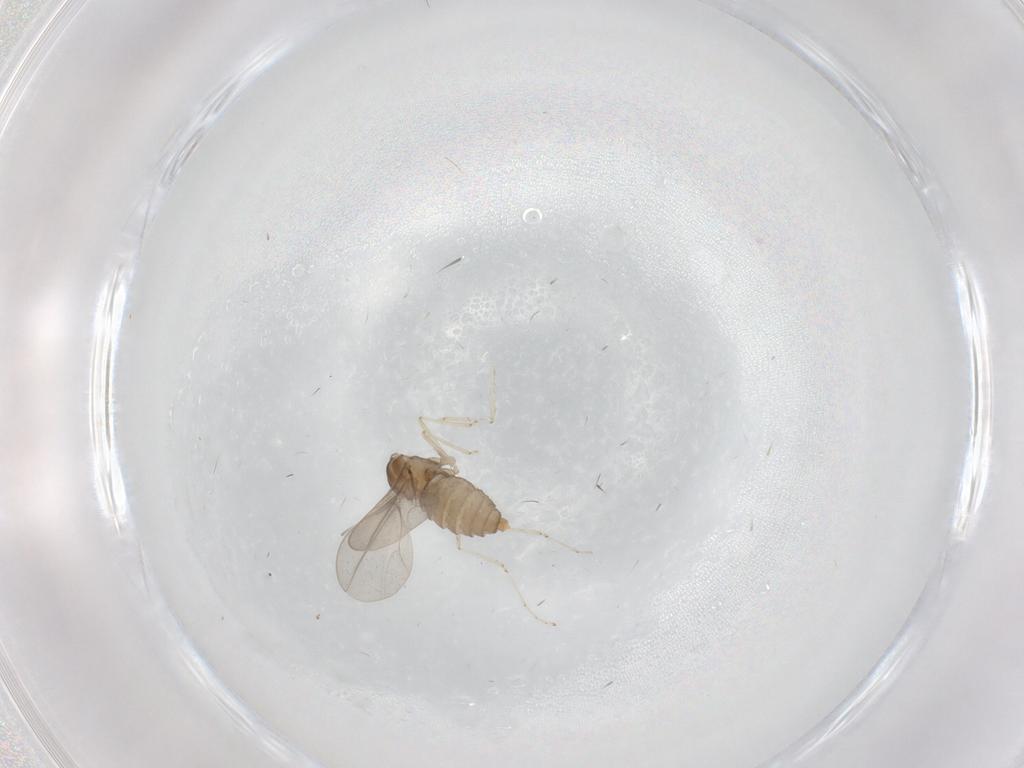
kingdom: Animalia
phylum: Arthropoda
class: Insecta
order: Diptera
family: Cecidomyiidae
